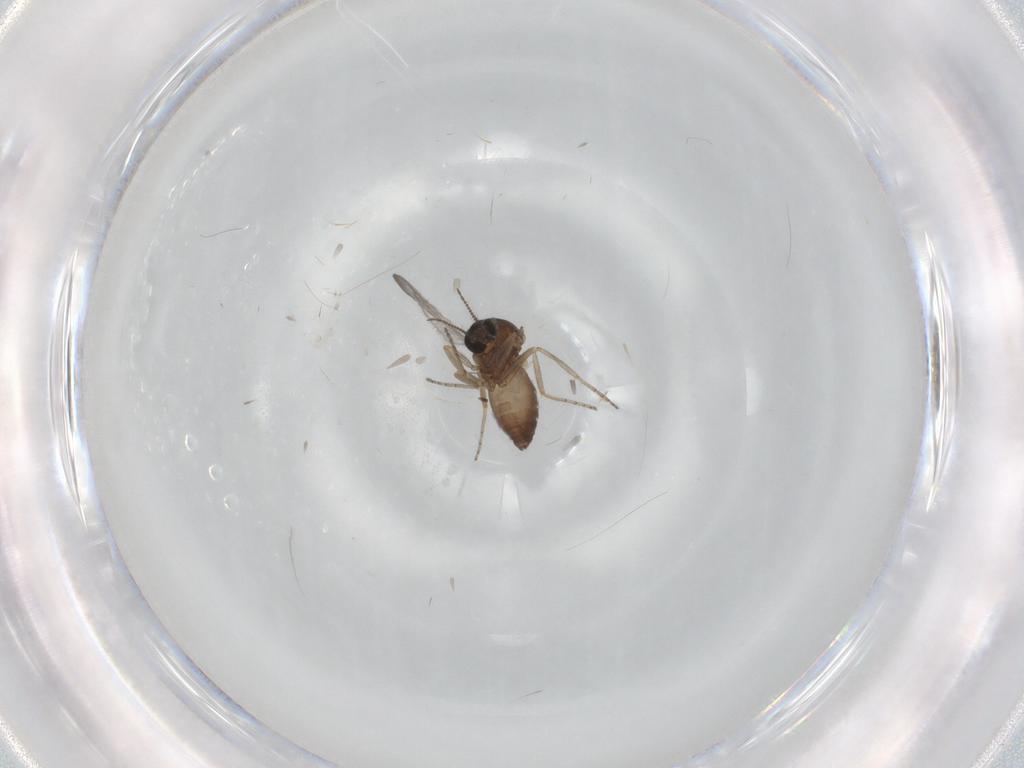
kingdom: Animalia
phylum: Arthropoda
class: Insecta
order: Diptera
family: Ceratopogonidae
